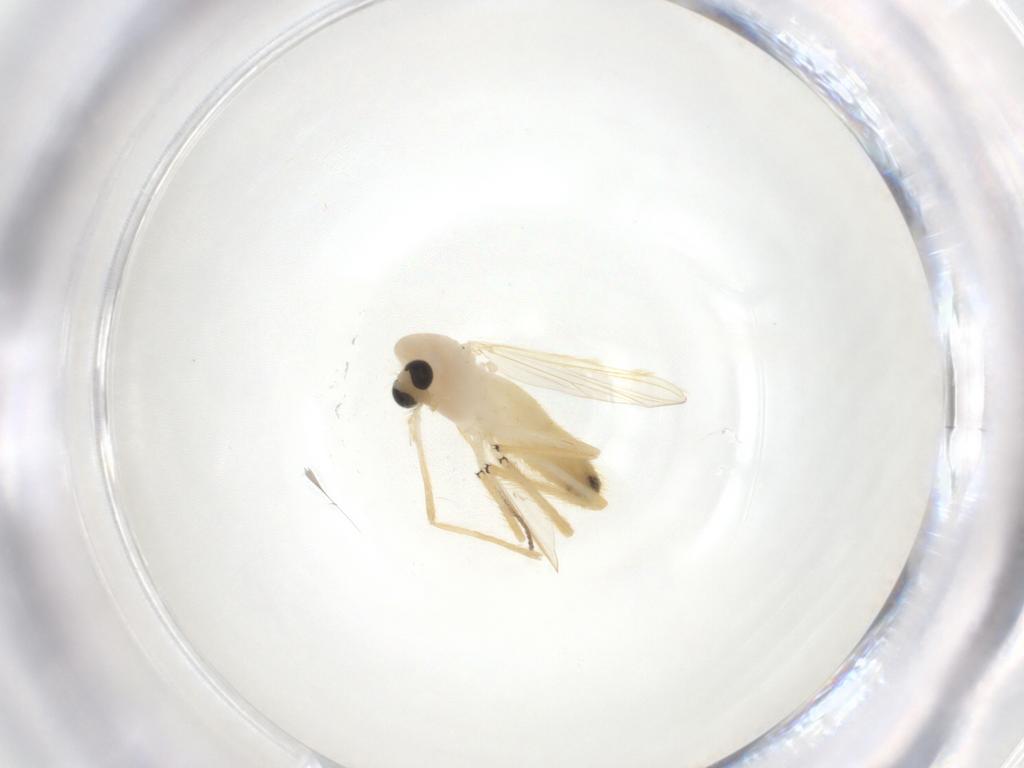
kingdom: Animalia
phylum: Arthropoda
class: Insecta
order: Diptera
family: Chironomidae
